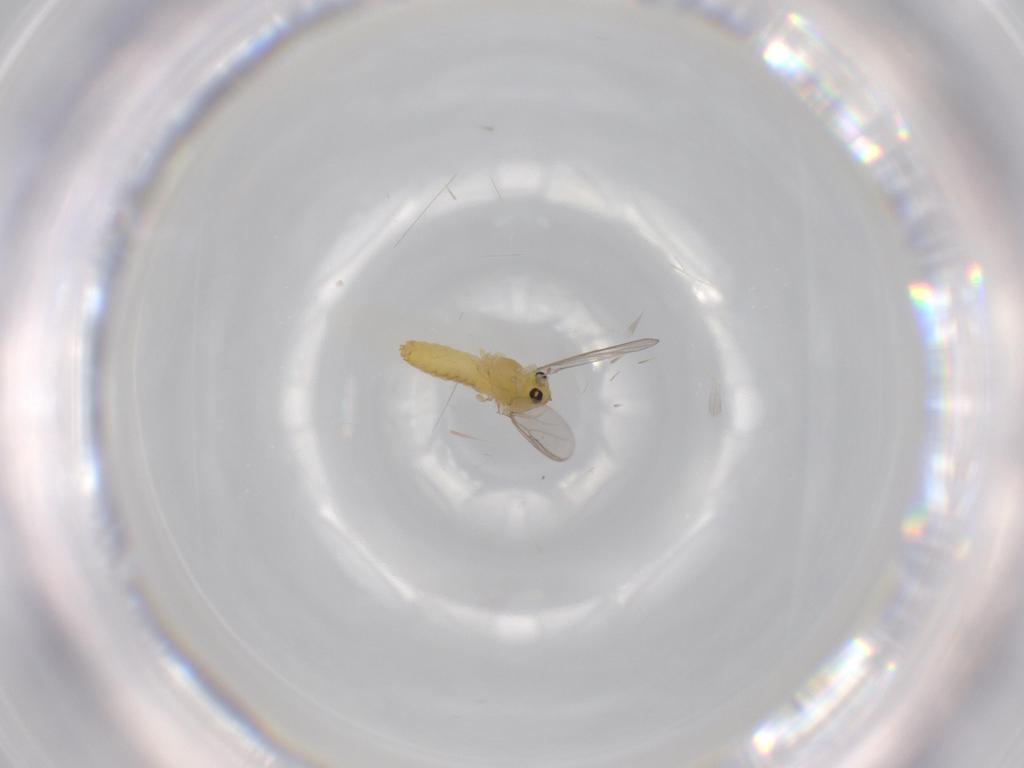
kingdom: Animalia
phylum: Arthropoda
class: Insecta
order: Diptera
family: Chironomidae
